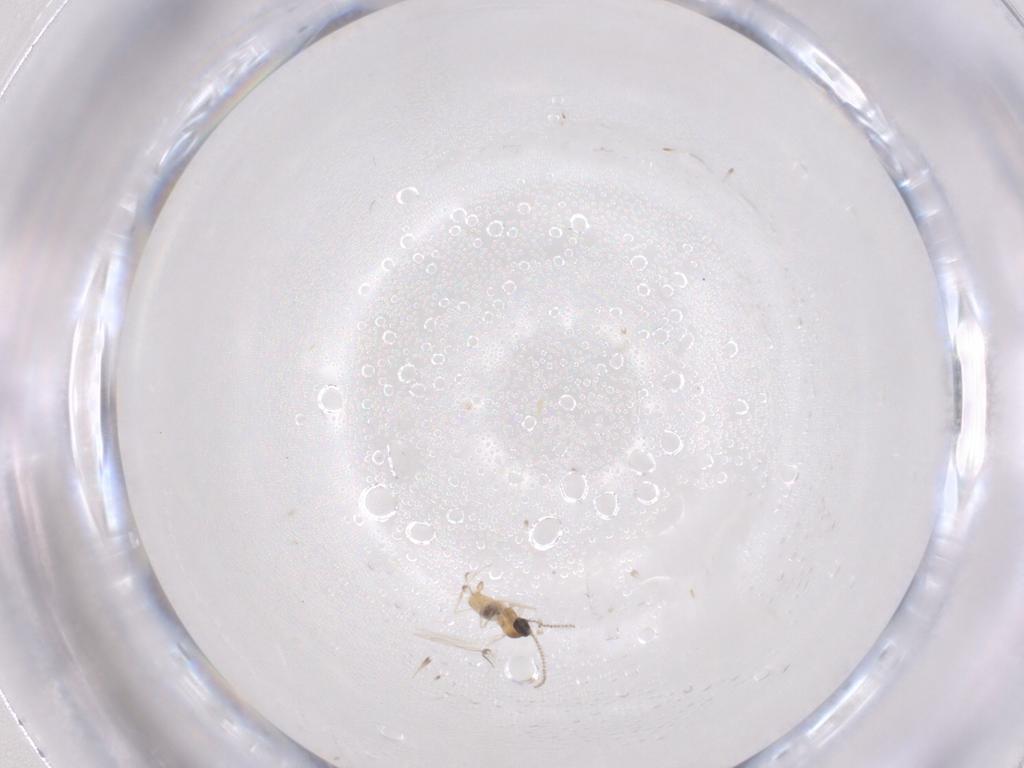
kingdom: Animalia
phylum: Arthropoda
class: Insecta
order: Diptera
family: Cecidomyiidae
